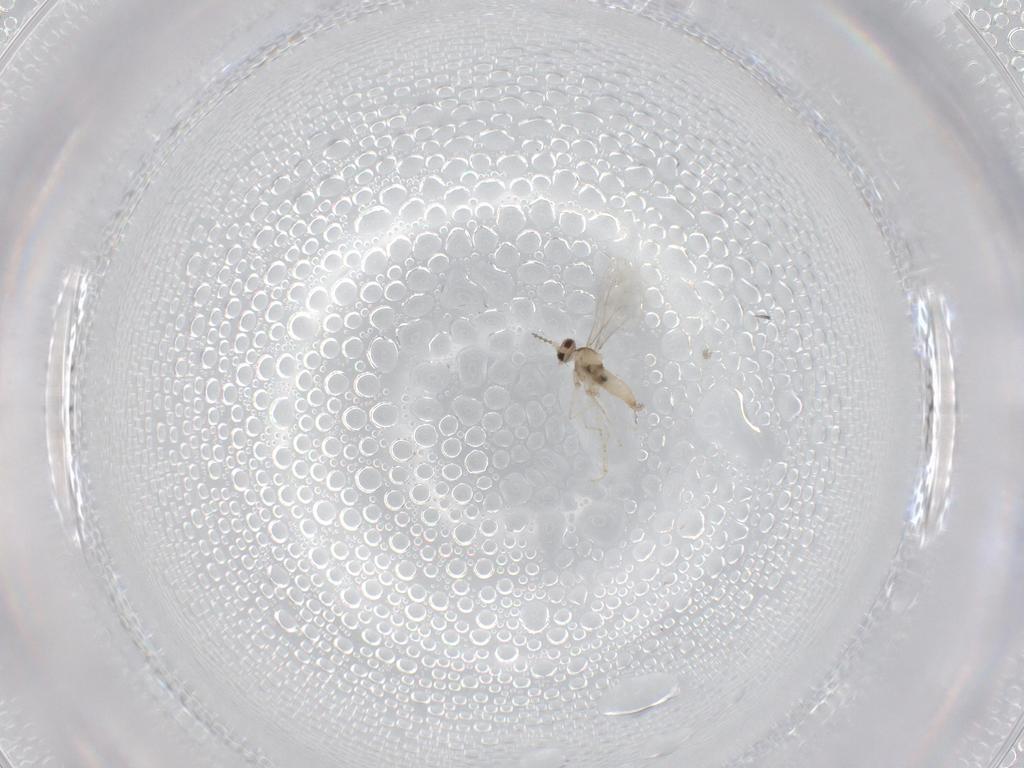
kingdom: Animalia
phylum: Arthropoda
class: Insecta
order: Diptera
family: Cecidomyiidae
